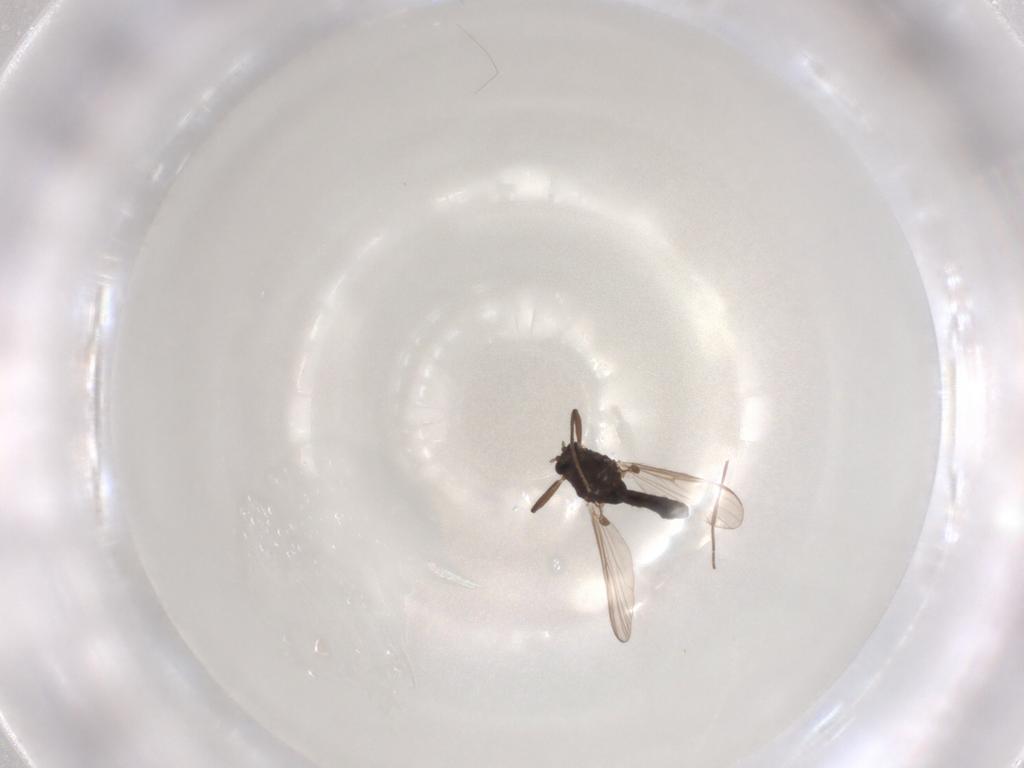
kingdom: Animalia
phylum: Arthropoda
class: Insecta
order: Diptera
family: Chironomidae
